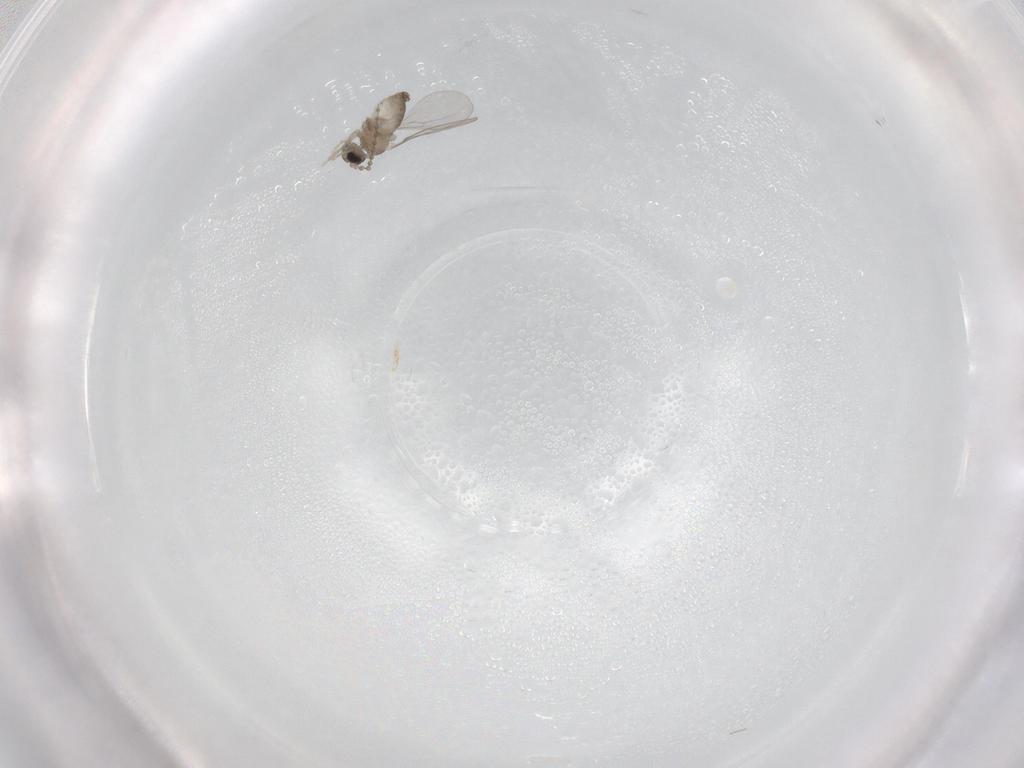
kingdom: Animalia
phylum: Arthropoda
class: Insecta
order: Diptera
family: Cecidomyiidae
